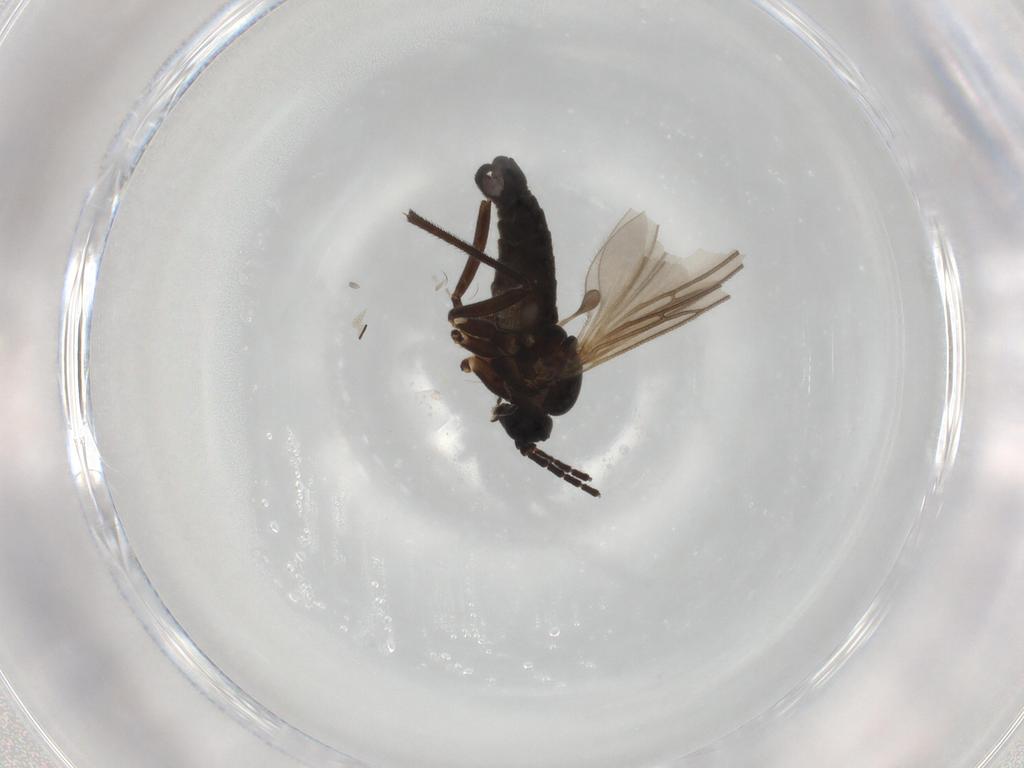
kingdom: Animalia
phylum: Arthropoda
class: Insecta
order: Diptera
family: Sciaridae
